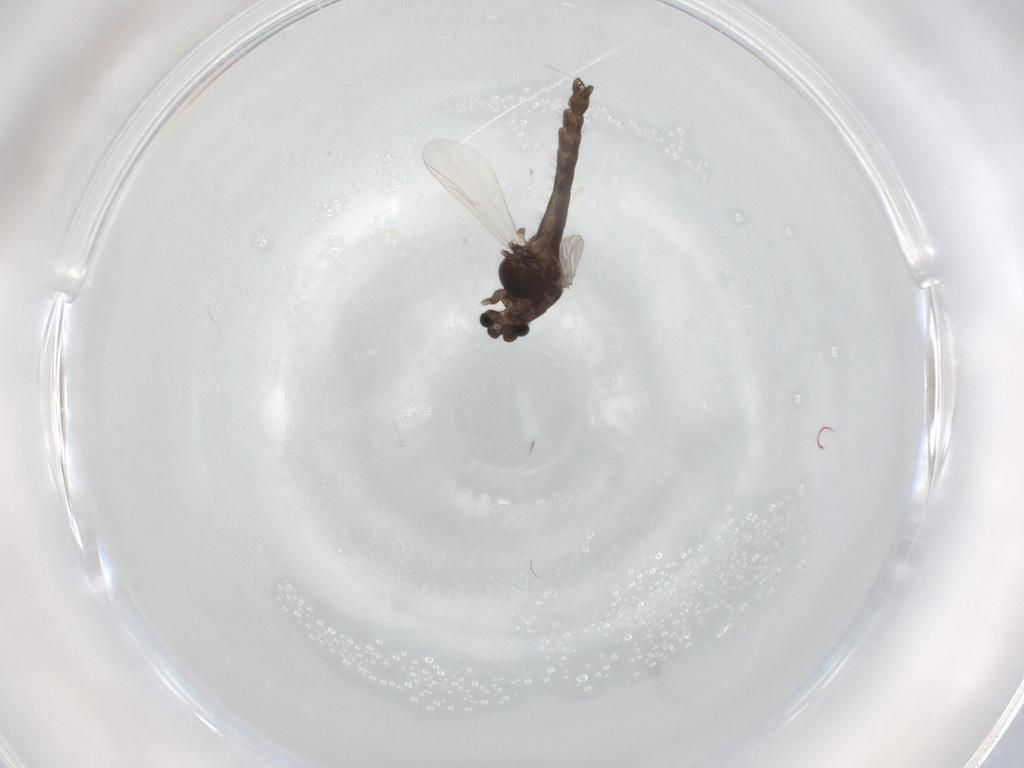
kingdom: Animalia
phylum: Arthropoda
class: Insecta
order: Diptera
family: Chironomidae
